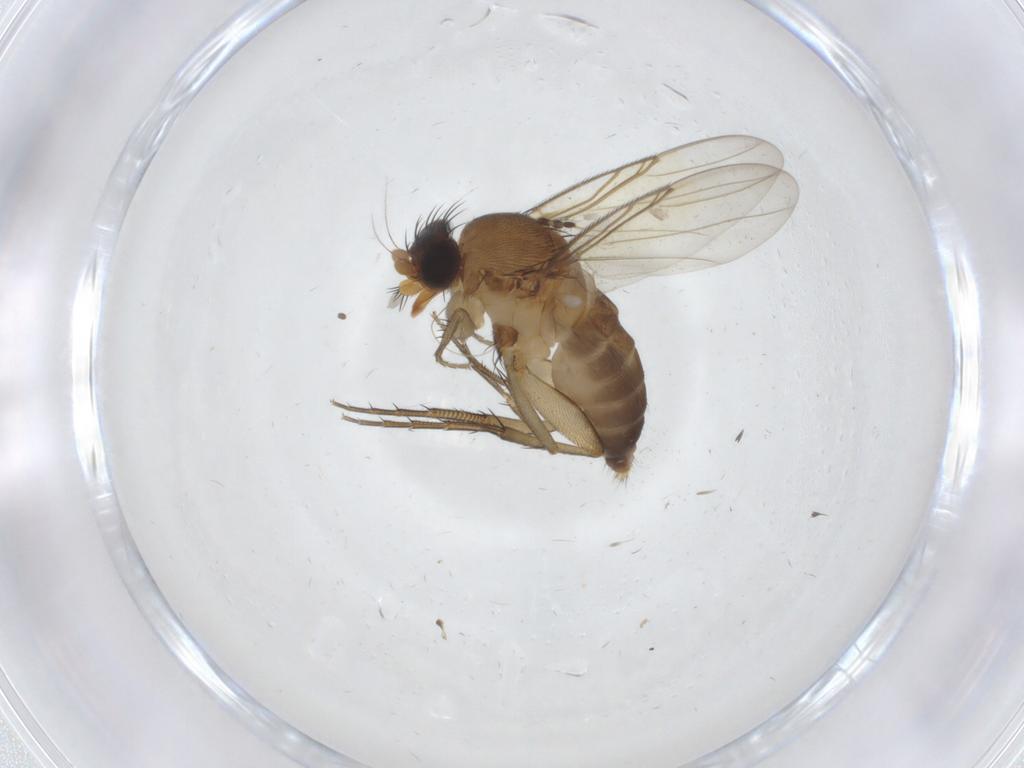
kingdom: Animalia
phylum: Arthropoda
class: Insecta
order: Diptera
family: Phoridae
